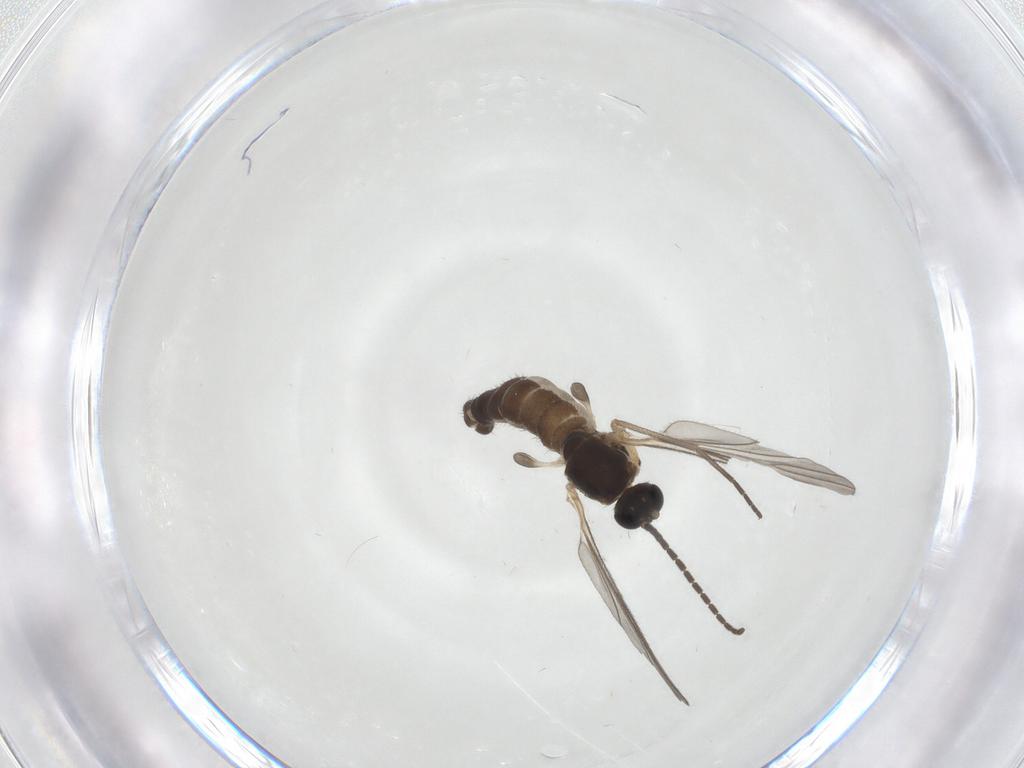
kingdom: Animalia
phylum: Arthropoda
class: Insecta
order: Diptera
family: Sciaridae
